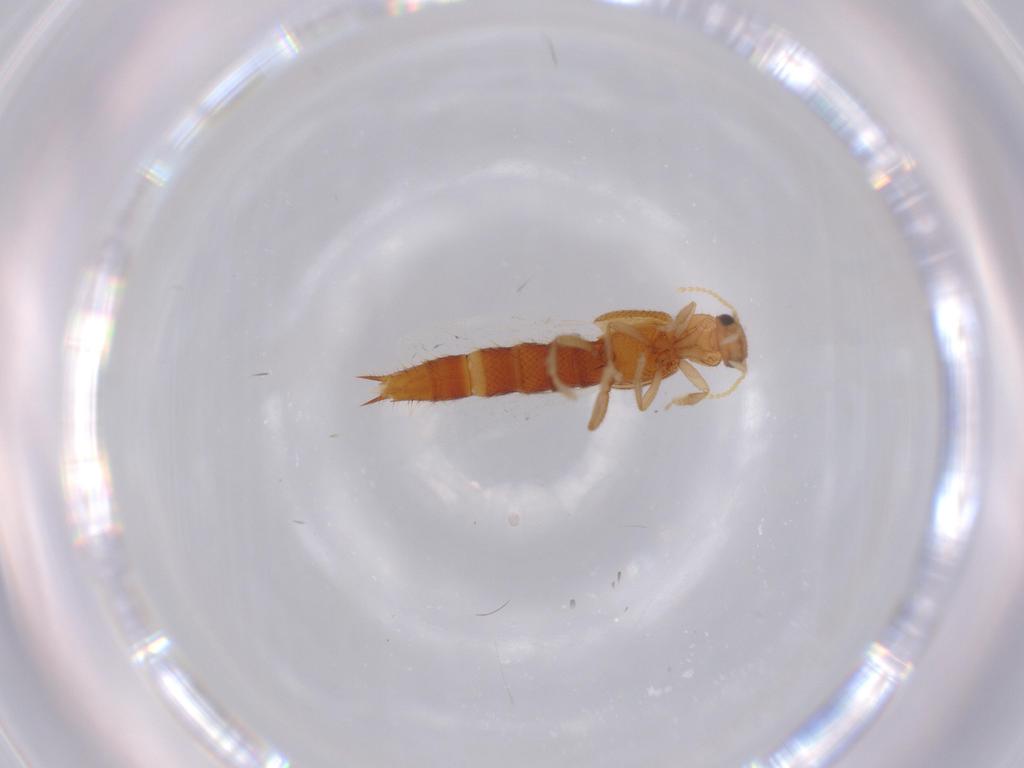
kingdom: Animalia
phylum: Arthropoda
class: Insecta
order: Coleoptera
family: Staphylinidae
